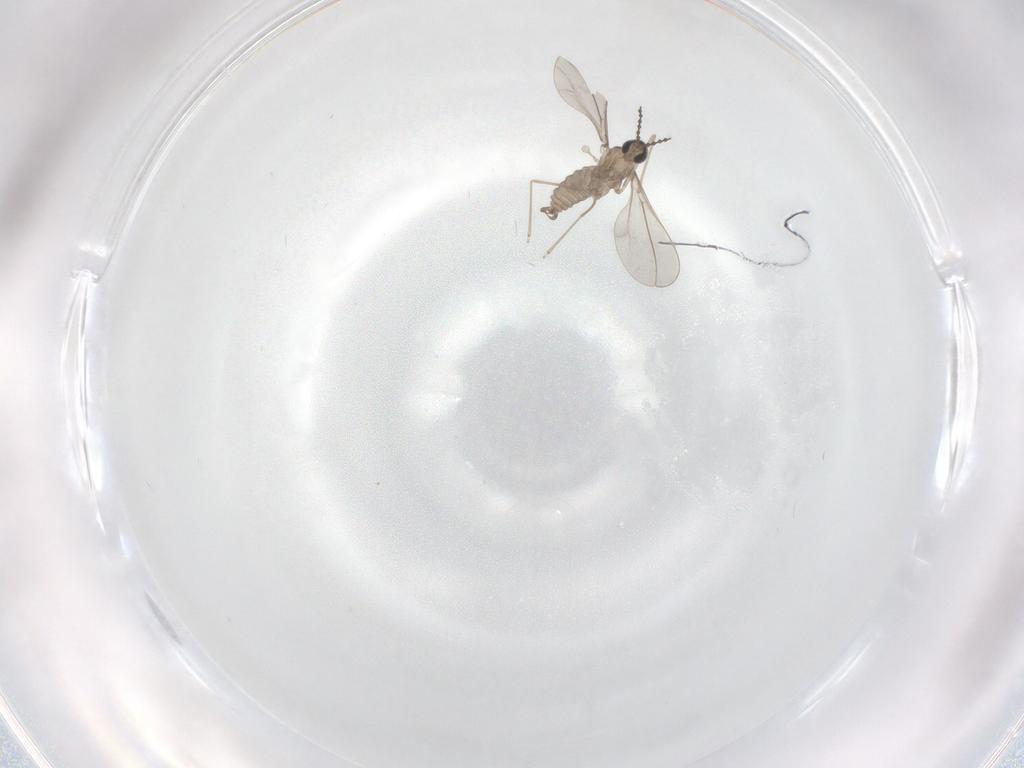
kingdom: Animalia
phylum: Arthropoda
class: Insecta
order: Diptera
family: Cecidomyiidae
